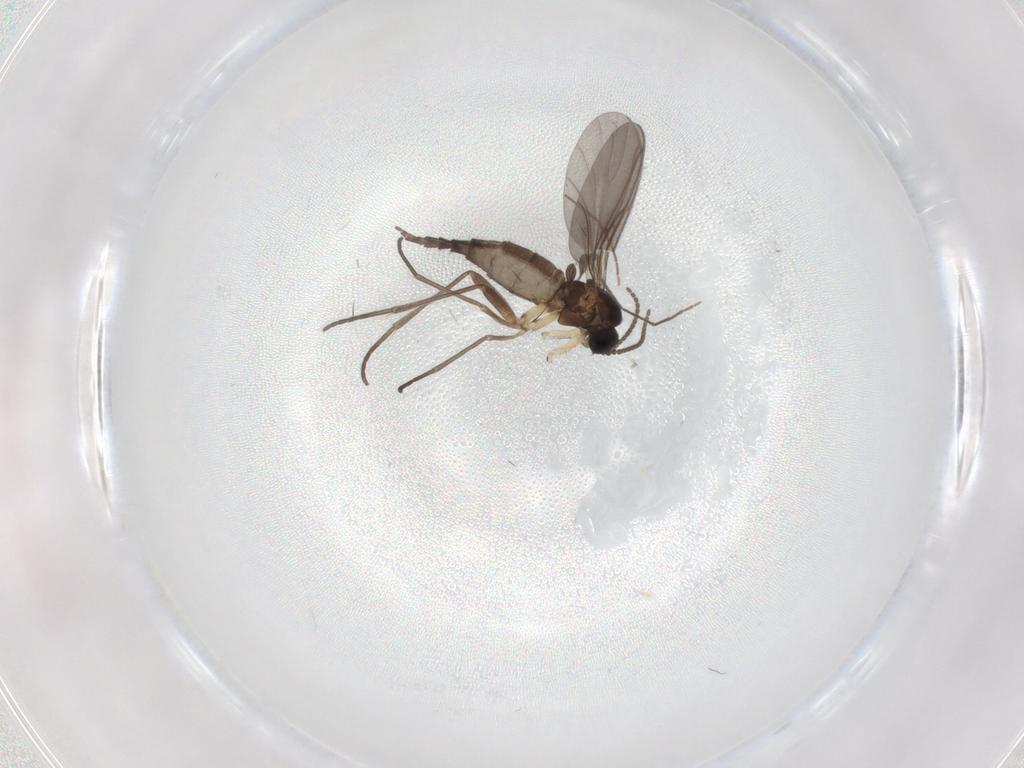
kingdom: Animalia
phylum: Arthropoda
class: Insecta
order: Diptera
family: Sciaridae
